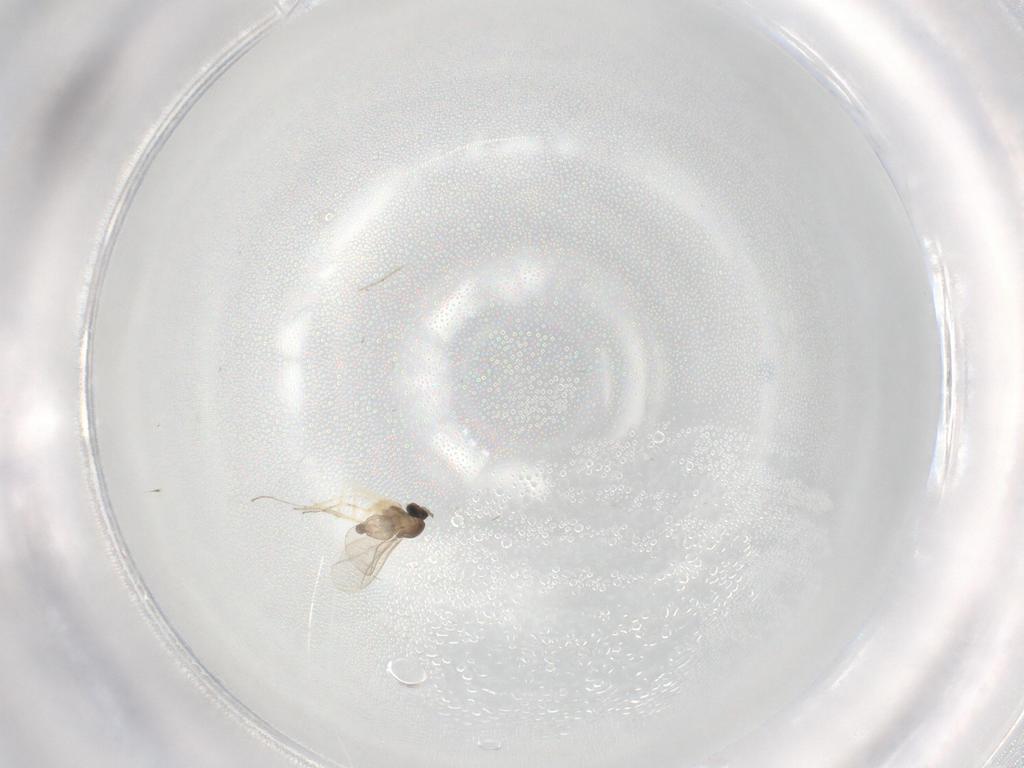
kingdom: Animalia
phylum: Arthropoda
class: Insecta
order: Diptera
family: Cecidomyiidae
